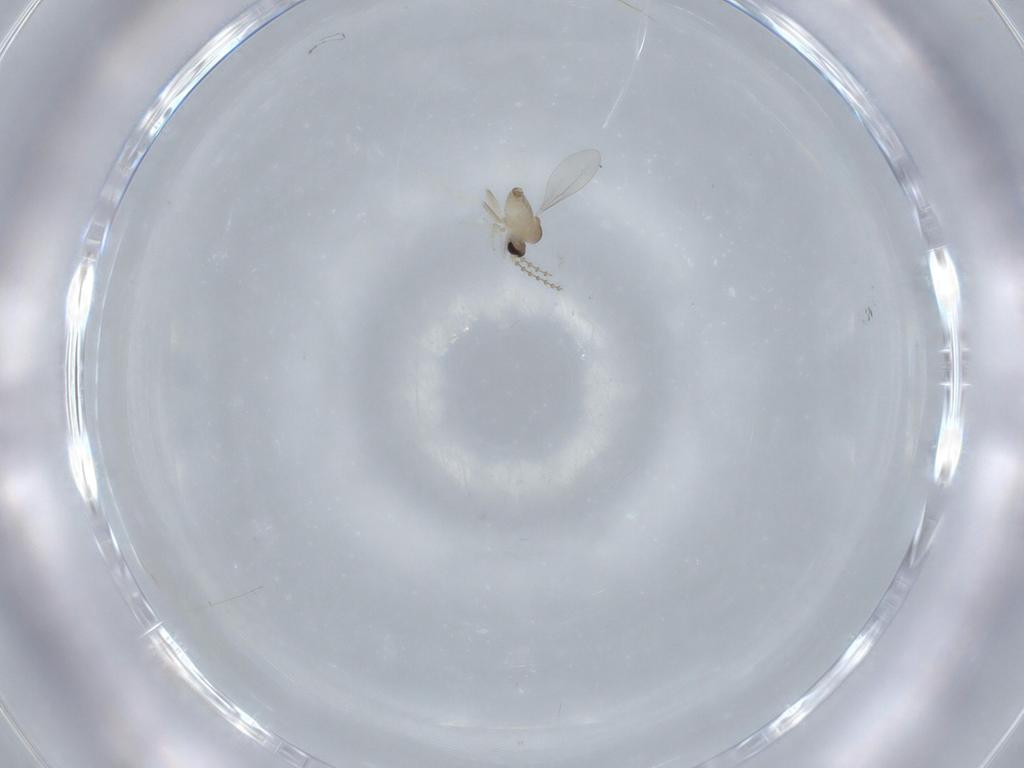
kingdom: Animalia
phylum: Arthropoda
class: Insecta
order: Diptera
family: Cecidomyiidae
